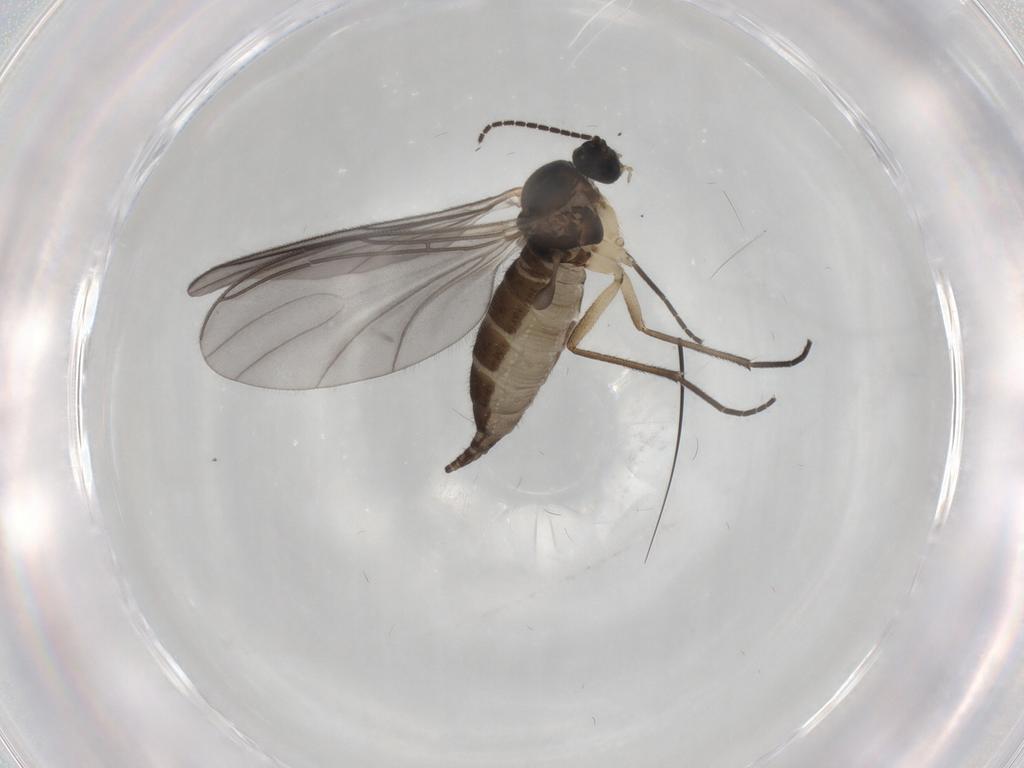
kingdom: Animalia
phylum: Arthropoda
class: Insecta
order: Diptera
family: Sciaridae
